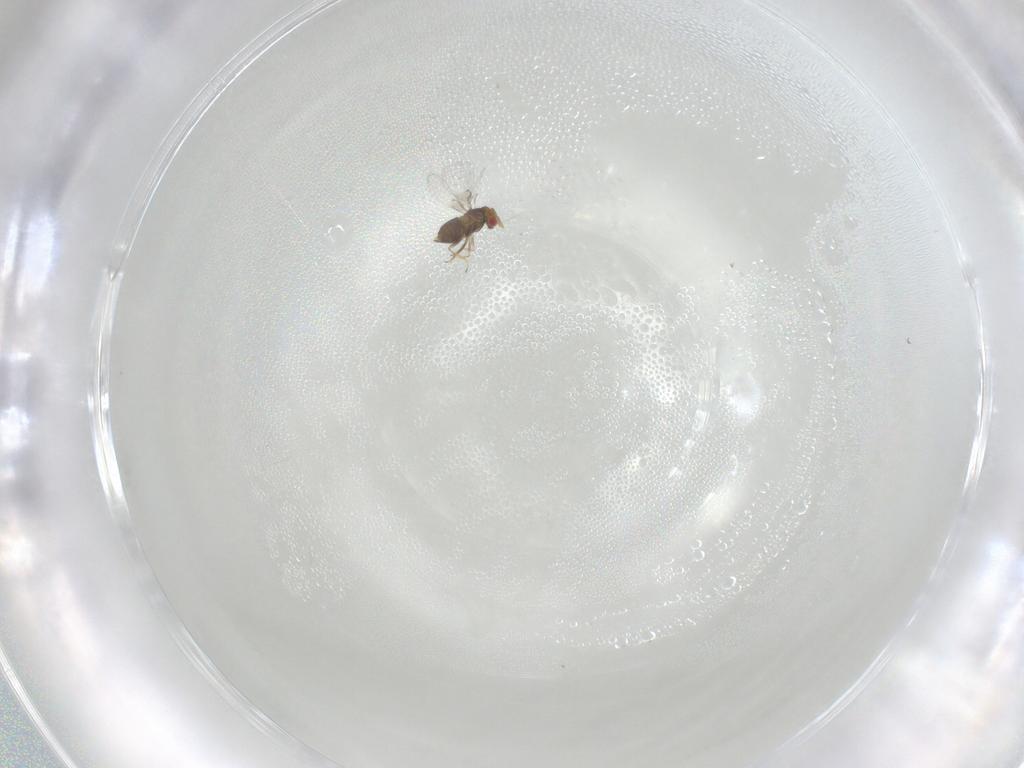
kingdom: Animalia
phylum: Arthropoda
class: Insecta
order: Hymenoptera
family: Trichogrammatidae
